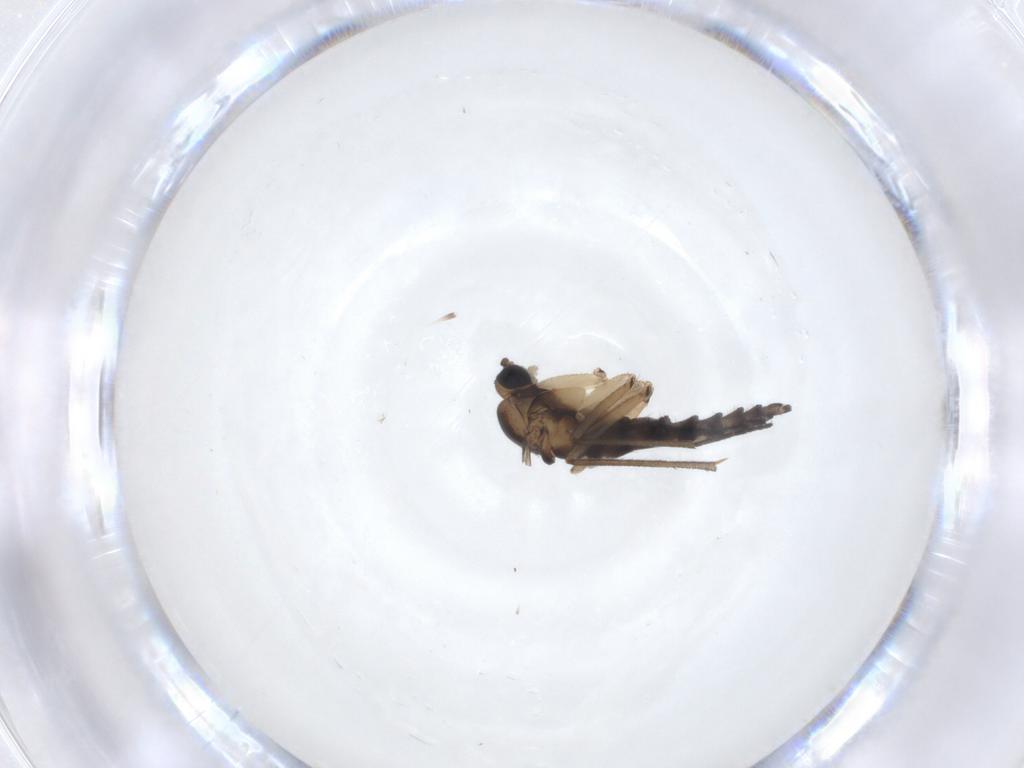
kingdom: Animalia
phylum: Arthropoda
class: Insecta
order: Diptera
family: Sciaridae
